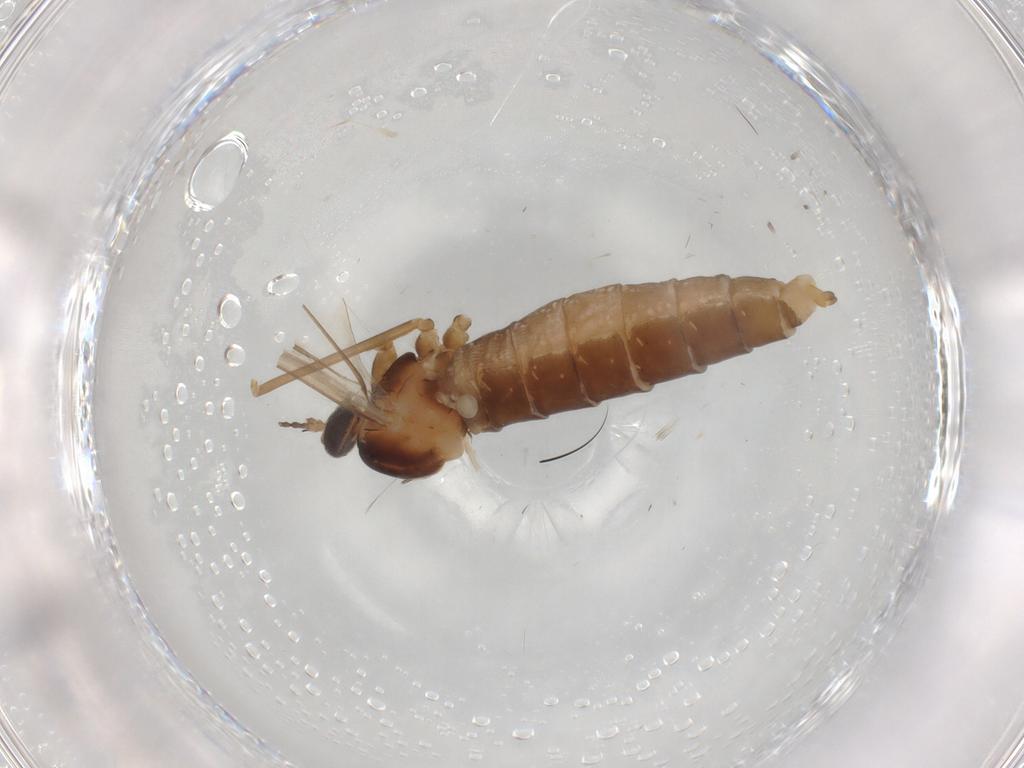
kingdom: Animalia
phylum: Arthropoda
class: Insecta
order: Diptera
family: Cecidomyiidae
